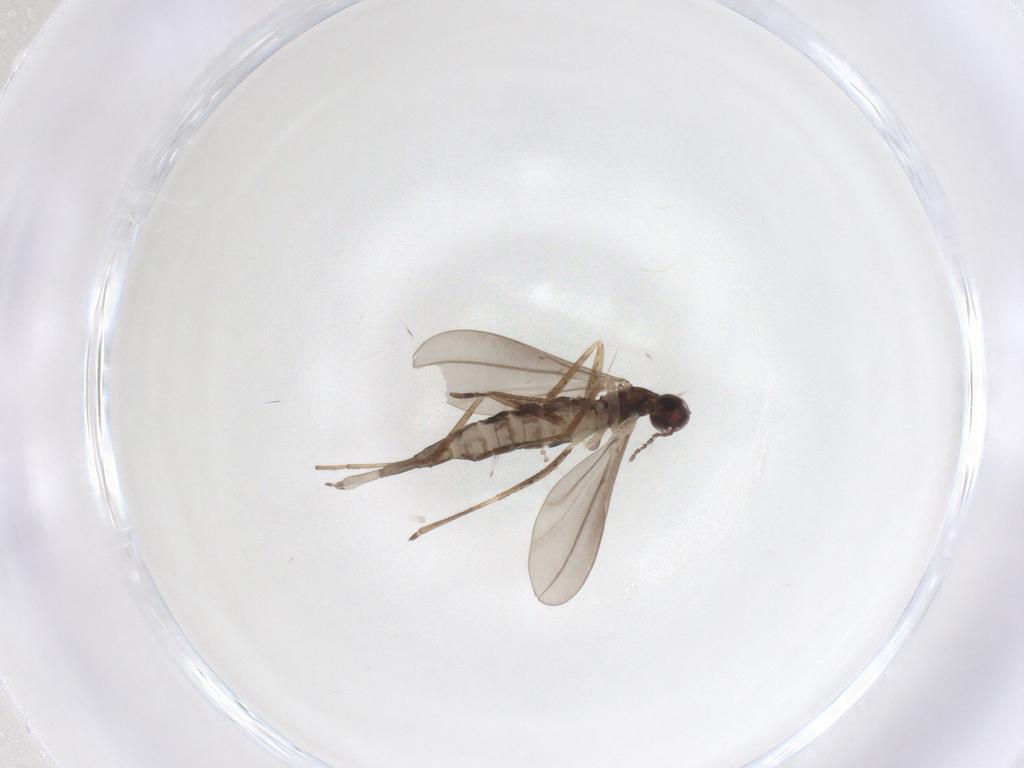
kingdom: Animalia
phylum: Arthropoda
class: Insecta
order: Diptera
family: Cecidomyiidae
